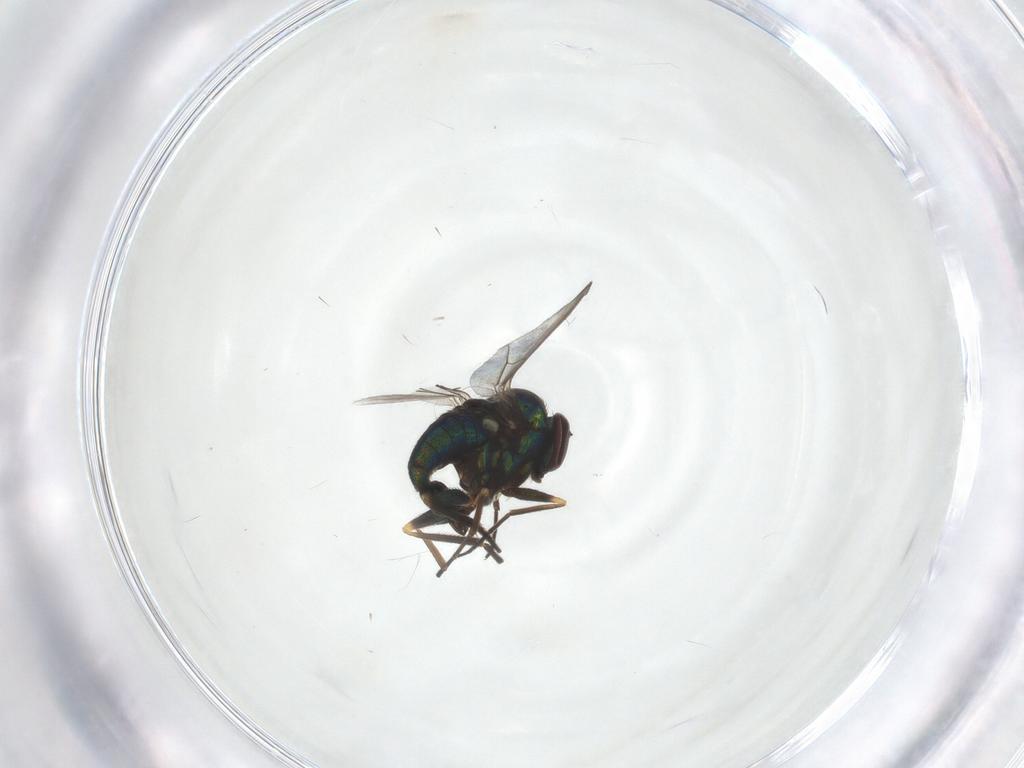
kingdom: Animalia
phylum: Arthropoda
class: Insecta
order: Diptera
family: Dolichopodidae
